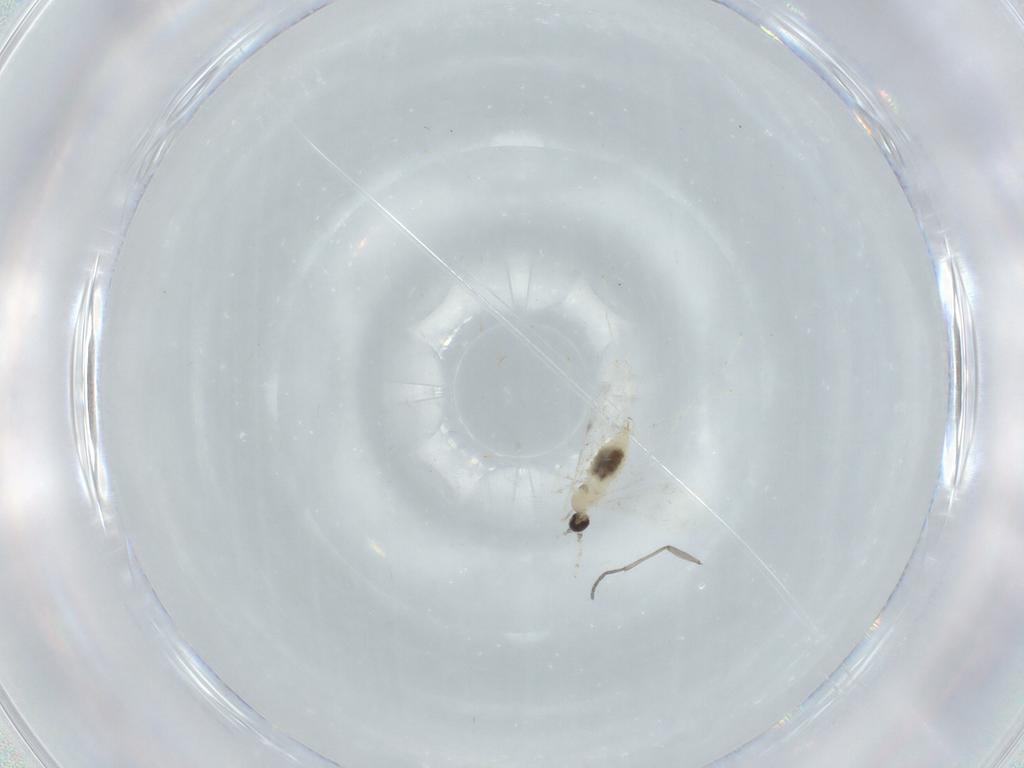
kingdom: Animalia
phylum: Arthropoda
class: Insecta
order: Diptera
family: Cecidomyiidae
